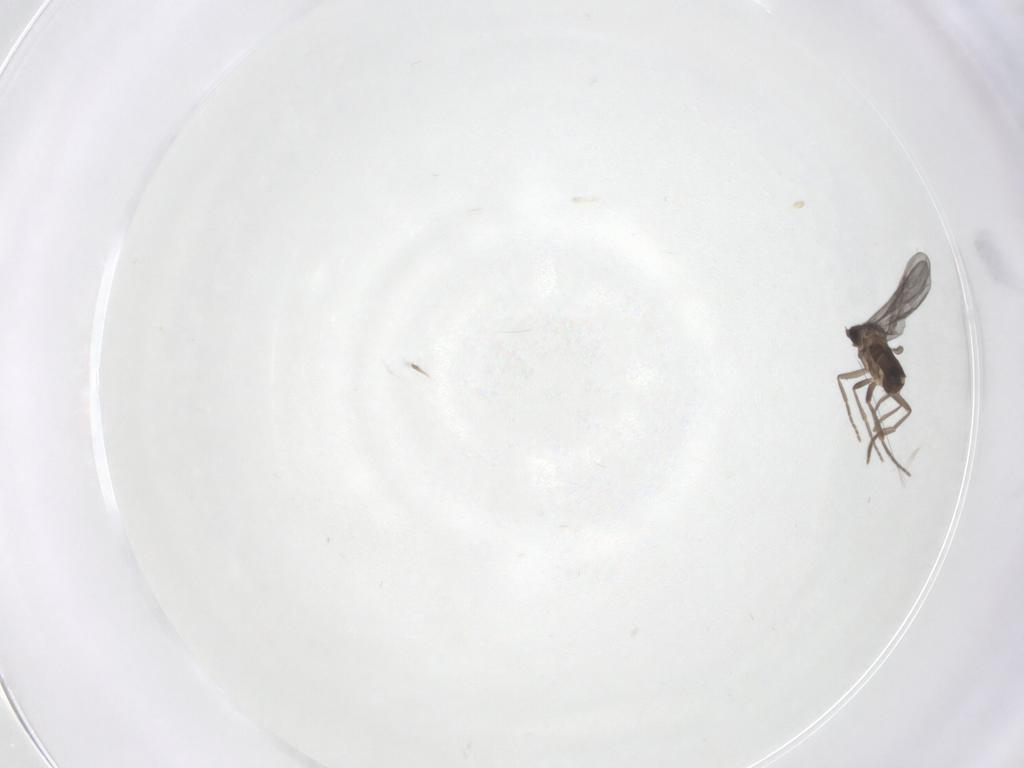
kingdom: Animalia
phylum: Arthropoda
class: Insecta
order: Diptera
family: Phoridae
